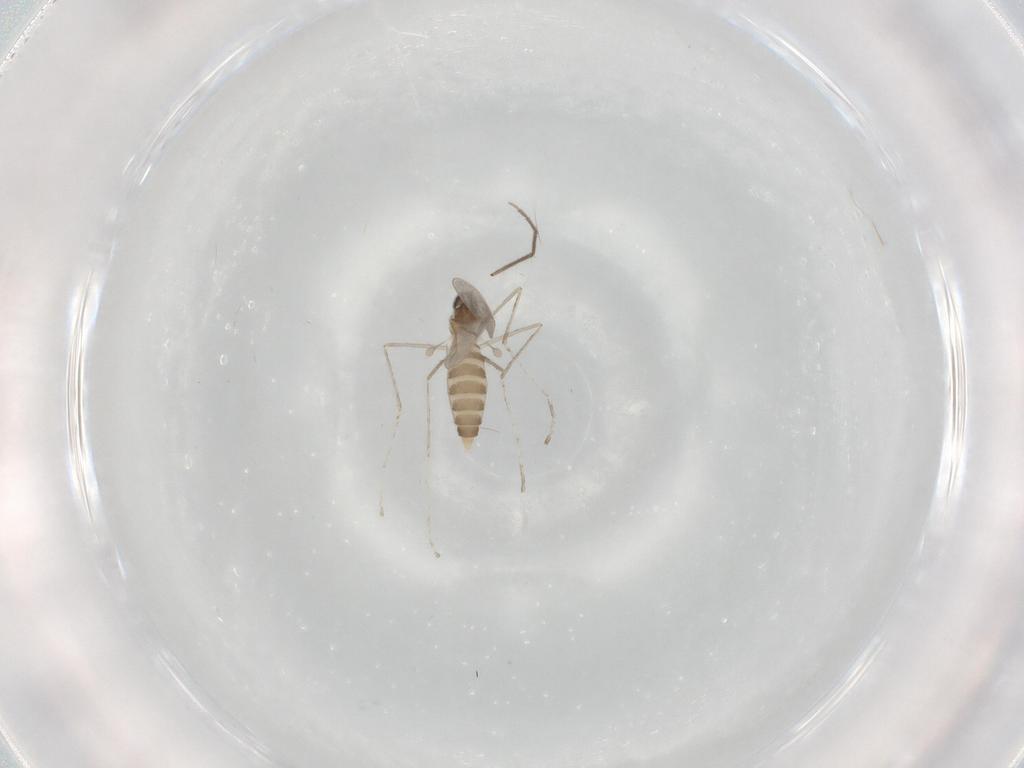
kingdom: Animalia
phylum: Arthropoda
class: Insecta
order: Diptera
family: Cecidomyiidae
